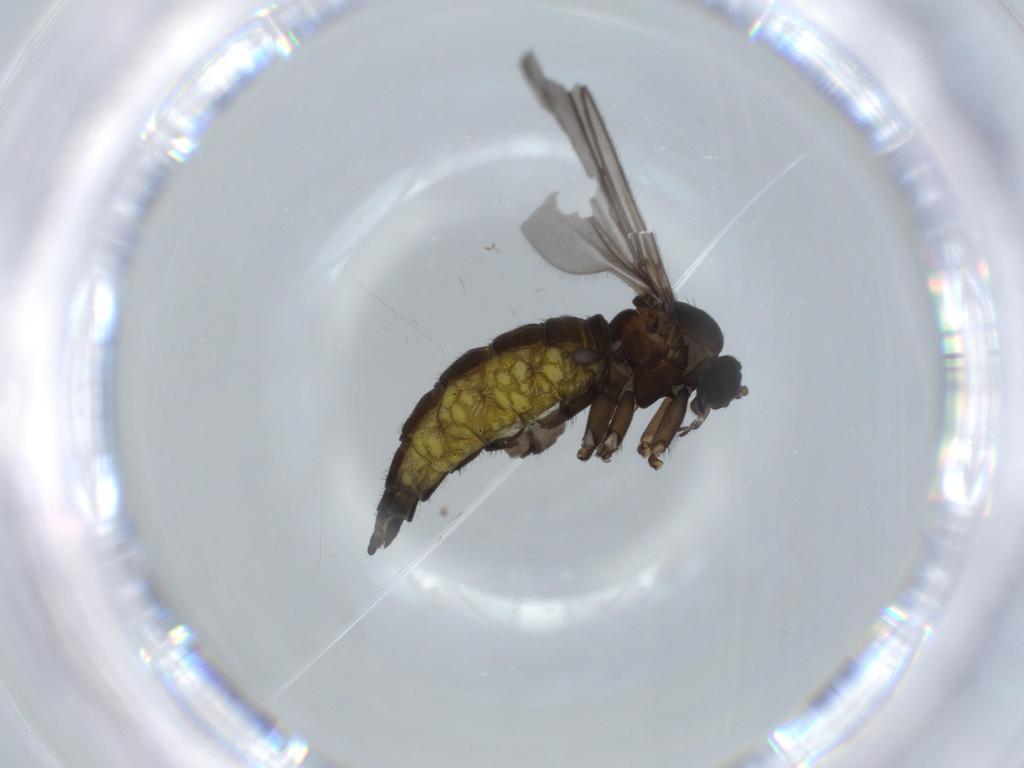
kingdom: Animalia
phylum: Arthropoda
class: Insecta
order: Diptera
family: Sciaridae
